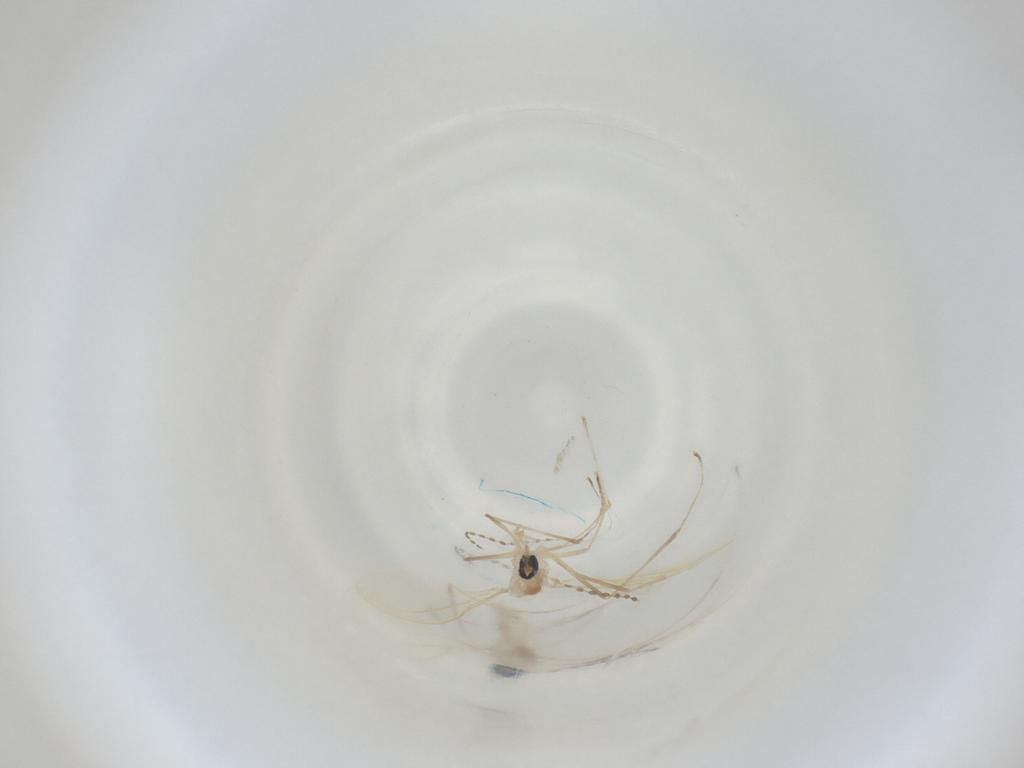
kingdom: Animalia
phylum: Arthropoda
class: Insecta
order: Diptera
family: Cecidomyiidae
